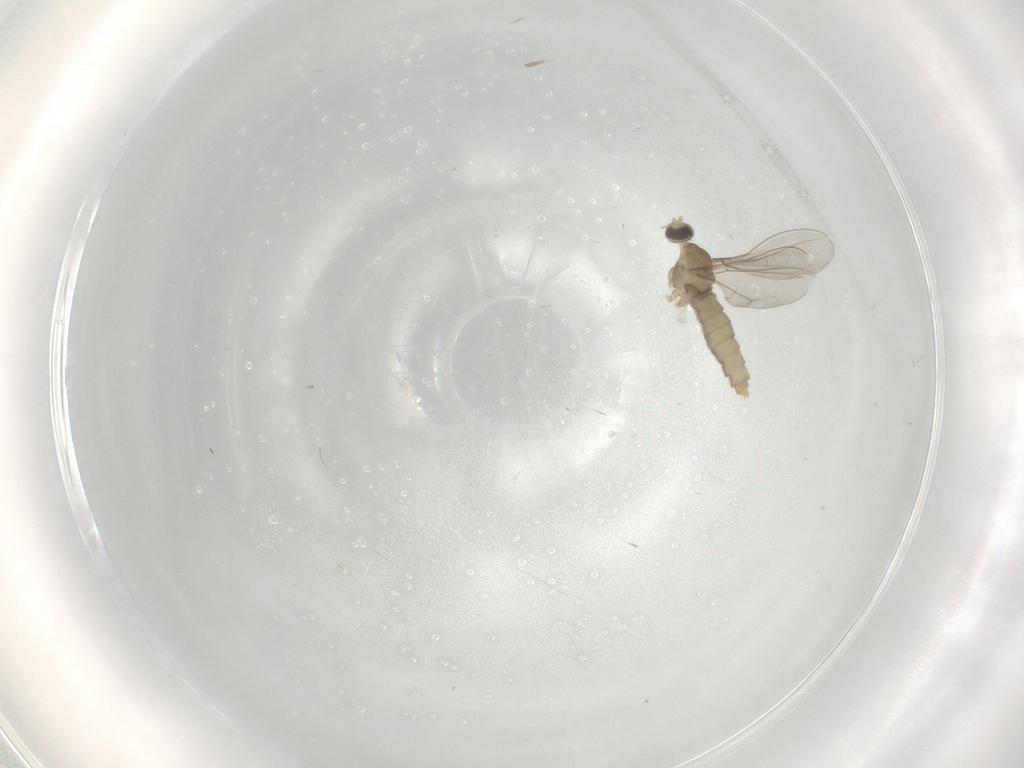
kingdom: Animalia
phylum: Arthropoda
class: Insecta
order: Diptera
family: Cecidomyiidae
